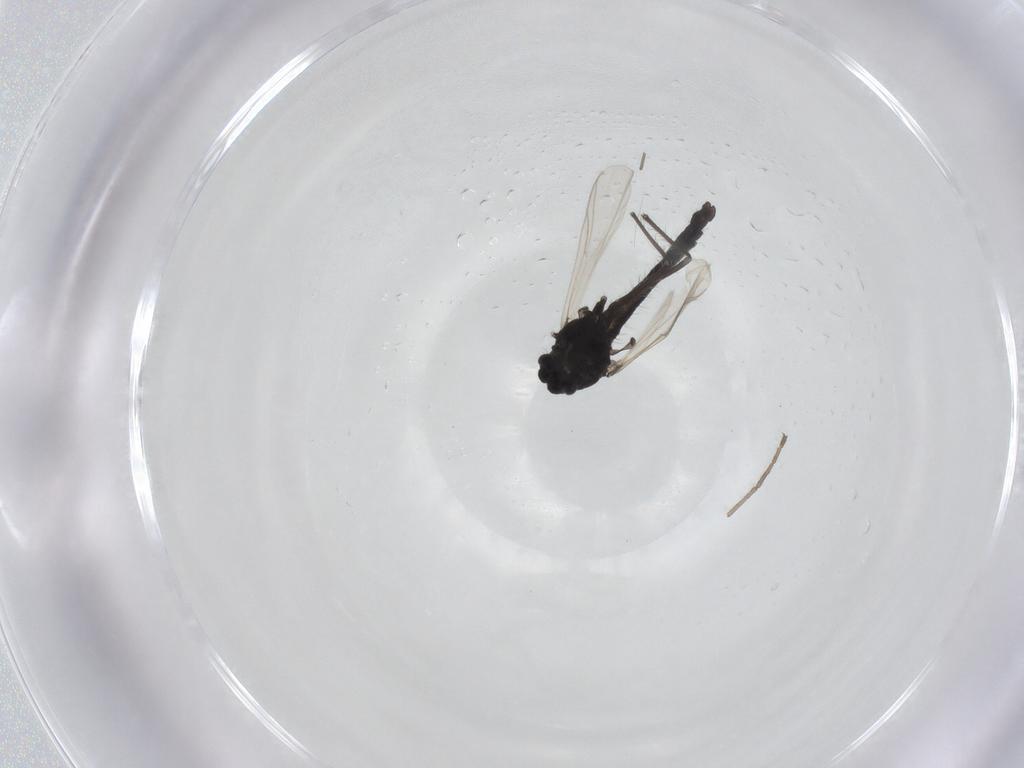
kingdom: Animalia
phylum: Arthropoda
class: Insecta
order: Diptera
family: Cecidomyiidae
